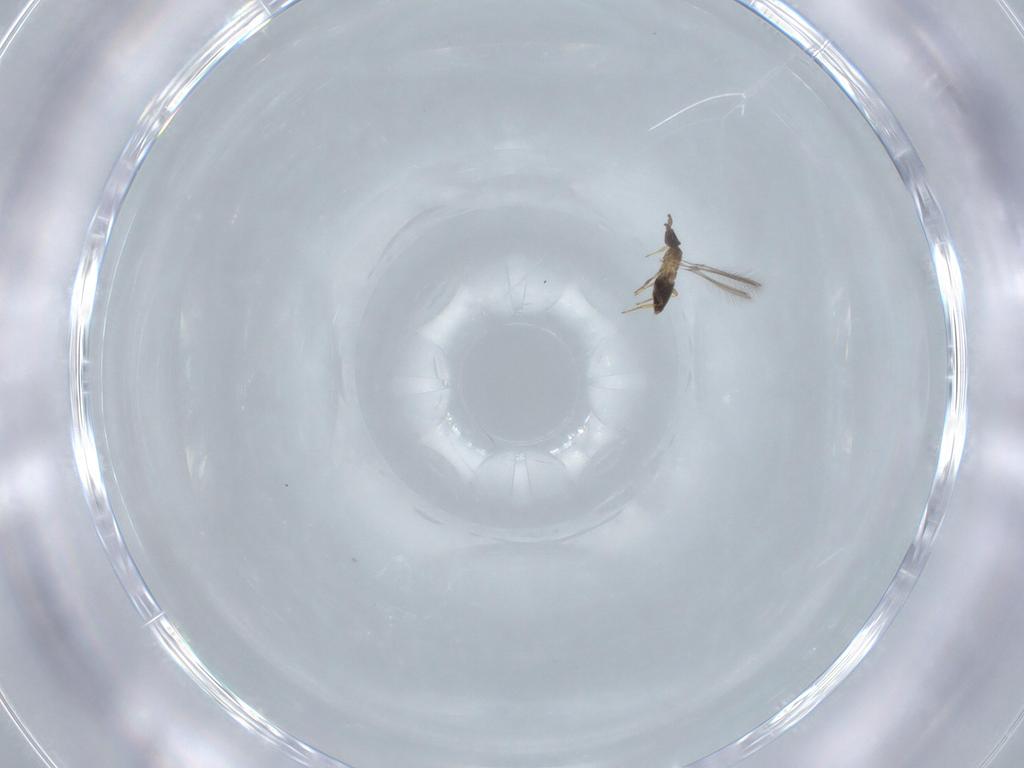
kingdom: Animalia
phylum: Arthropoda
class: Insecta
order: Hymenoptera
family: Mymaridae
